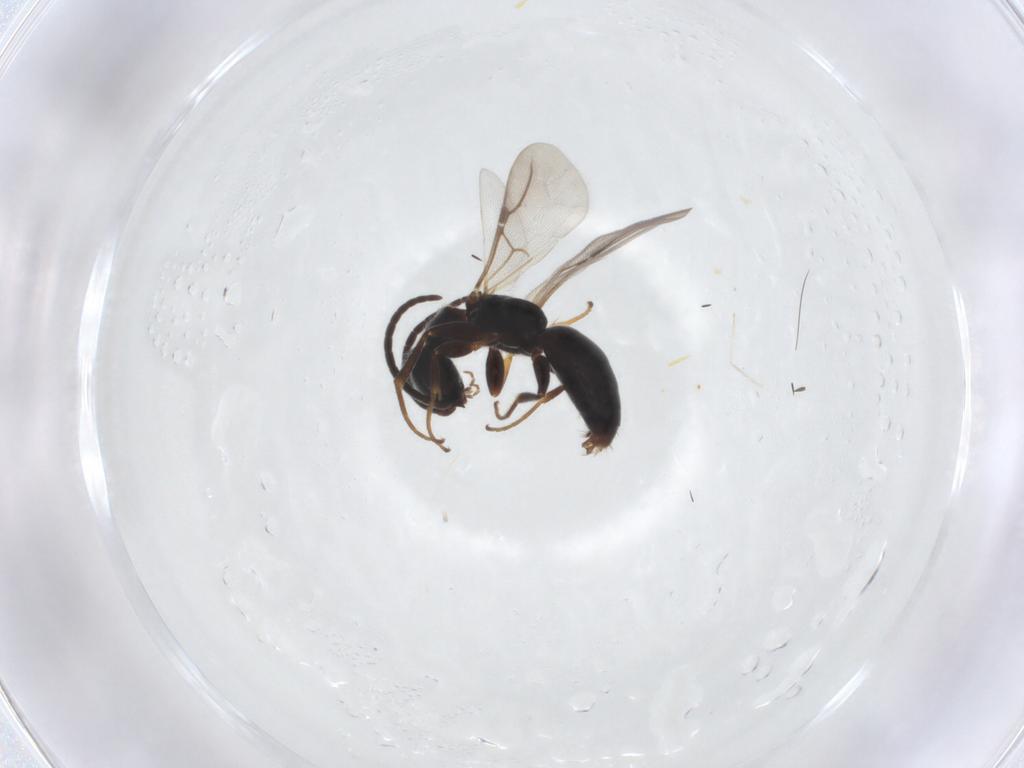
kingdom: Animalia
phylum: Arthropoda
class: Insecta
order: Hymenoptera
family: Bethylidae
